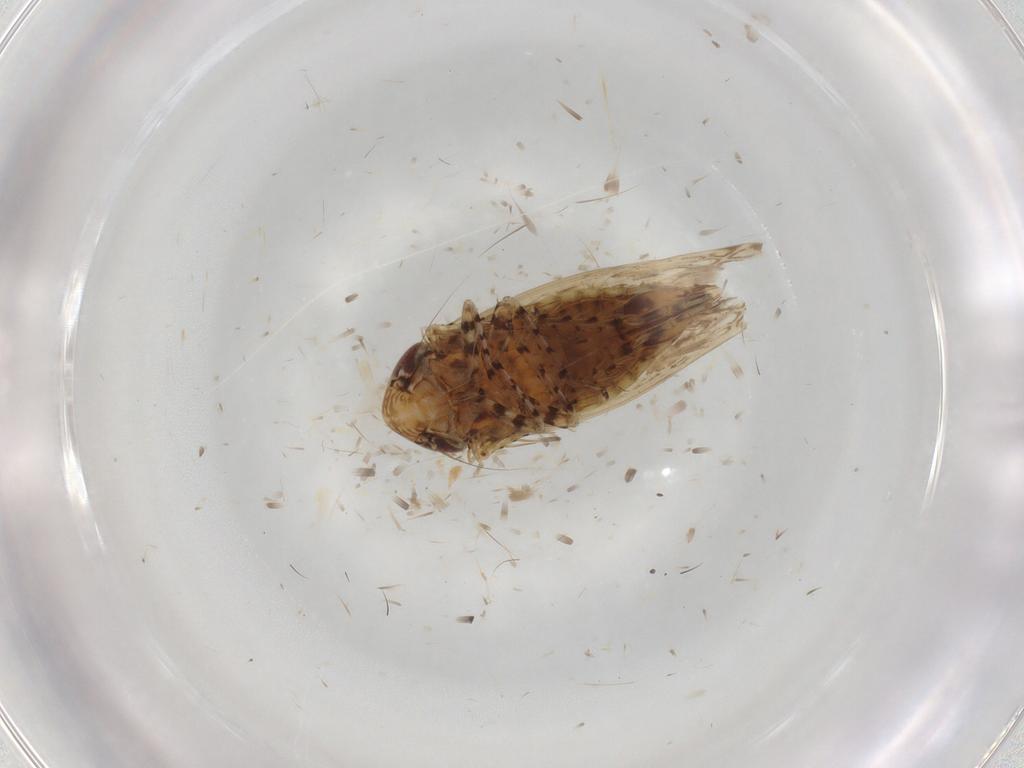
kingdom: Animalia
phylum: Arthropoda
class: Insecta
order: Hemiptera
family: Cicadellidae
